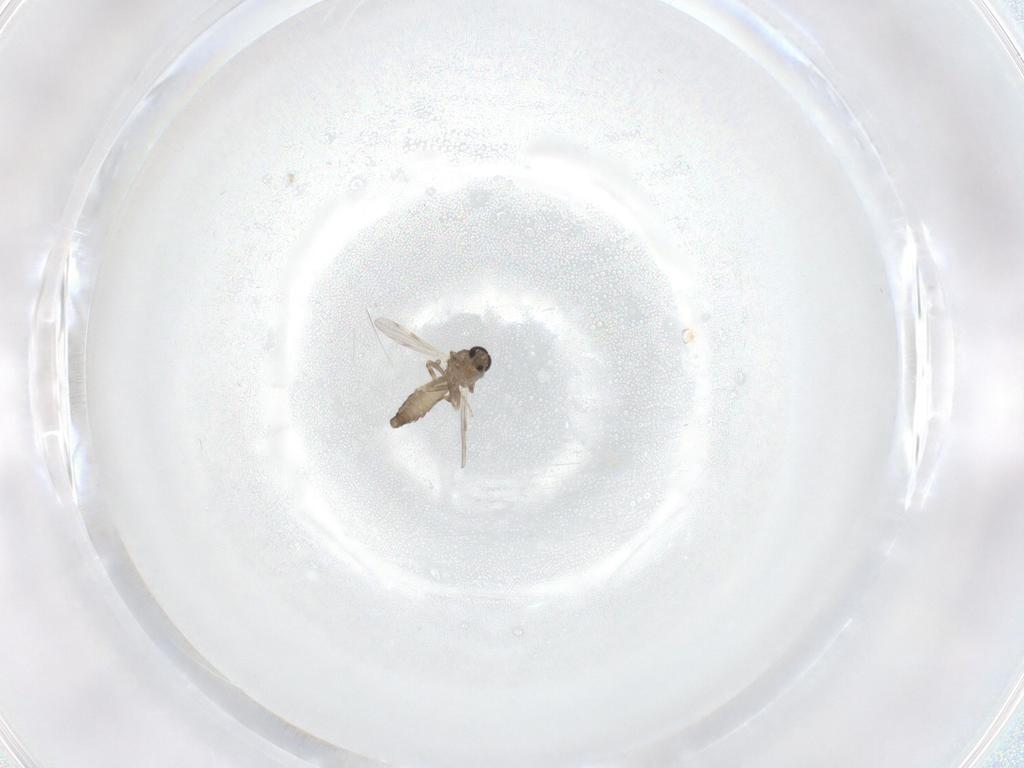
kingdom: Animalia
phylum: Arthropoda
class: Insecta
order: Diptera
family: Ceratopogonidae
